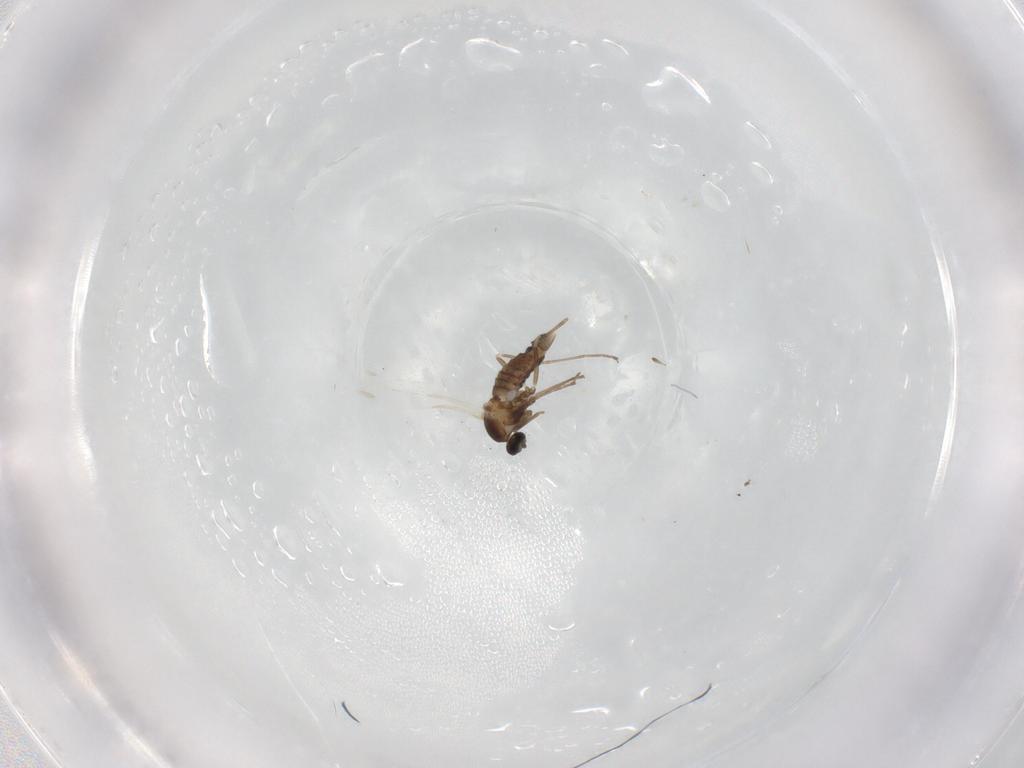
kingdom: Animalia
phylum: Arthropoda
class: Insecta
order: Diptera
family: Cecidomyiidae
